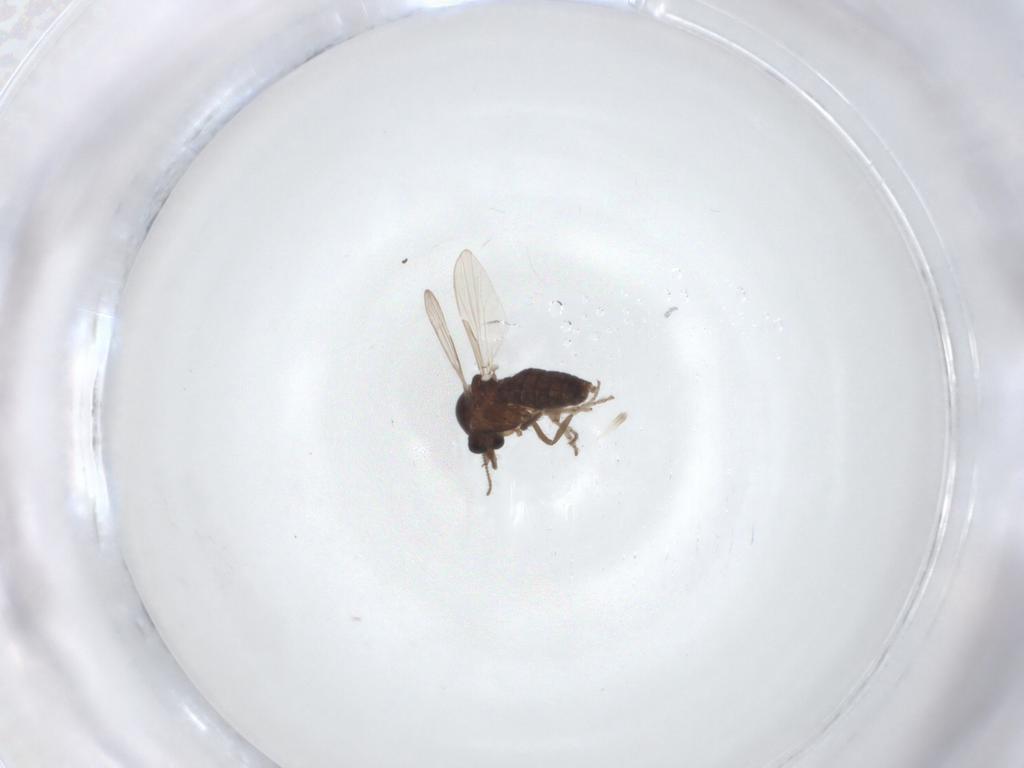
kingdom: Animalia
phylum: Arthropoda
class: Insecta
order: Diptera
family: Ceratopogonidae
